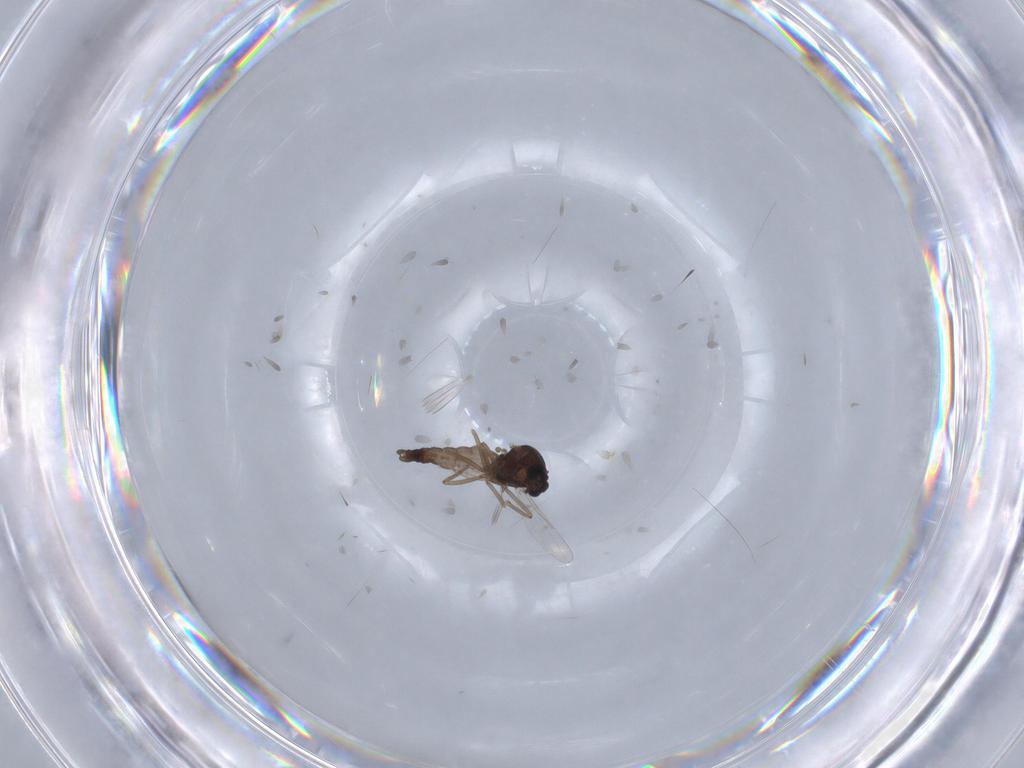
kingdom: Animalia
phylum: Arthropoda
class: Insecta
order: Diptera
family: Ceratopogonidae
